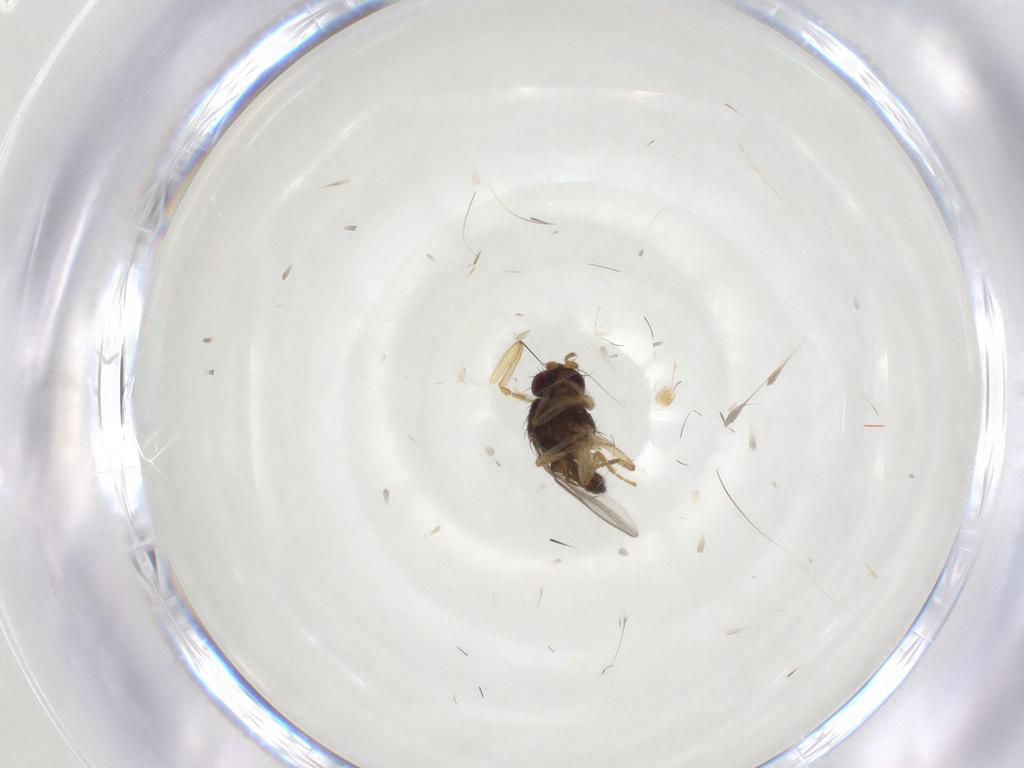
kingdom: Animalia
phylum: Arthropoda
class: Insecta
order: Diptera
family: Sphaeroceridae
